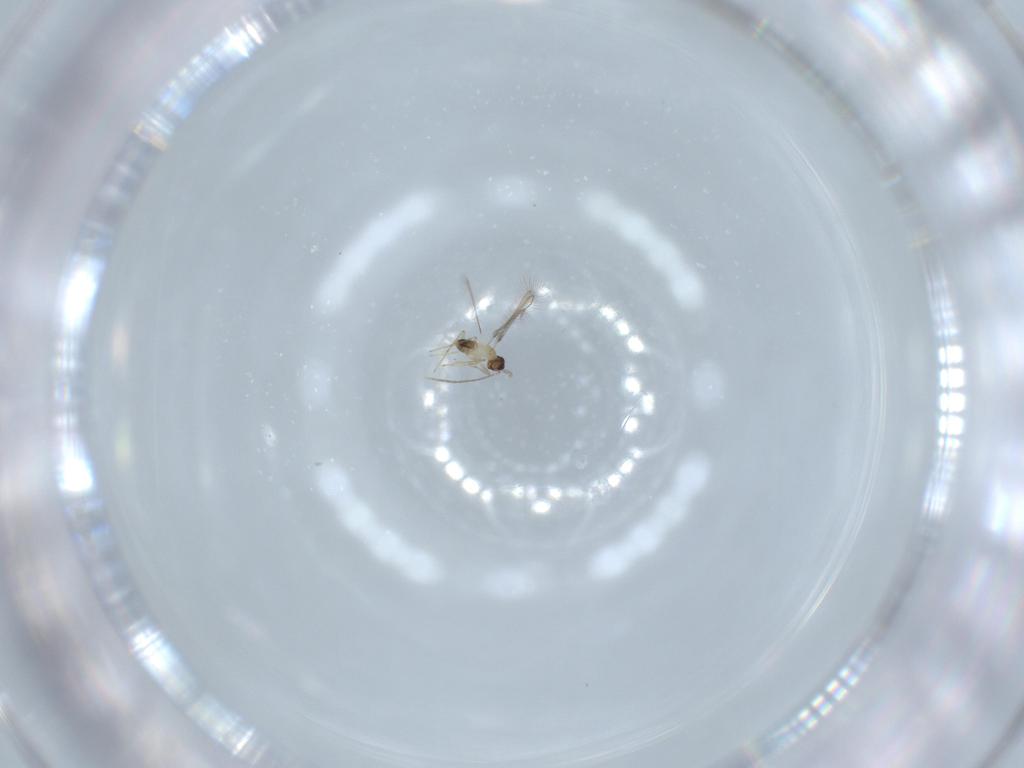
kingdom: Animalia
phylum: Arthropoda
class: Insecta
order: Hymenoptera
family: Mymaridae
